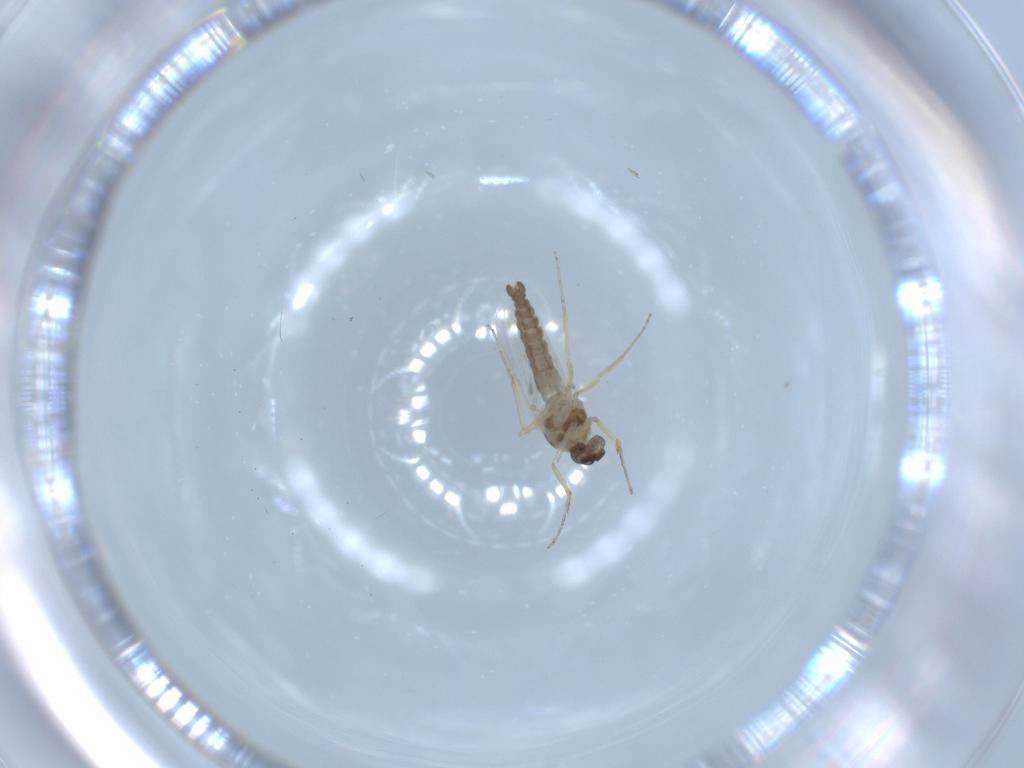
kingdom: Animalia
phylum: Arthropoda
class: Insecta
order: Diptera
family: Ceratopogonidae
